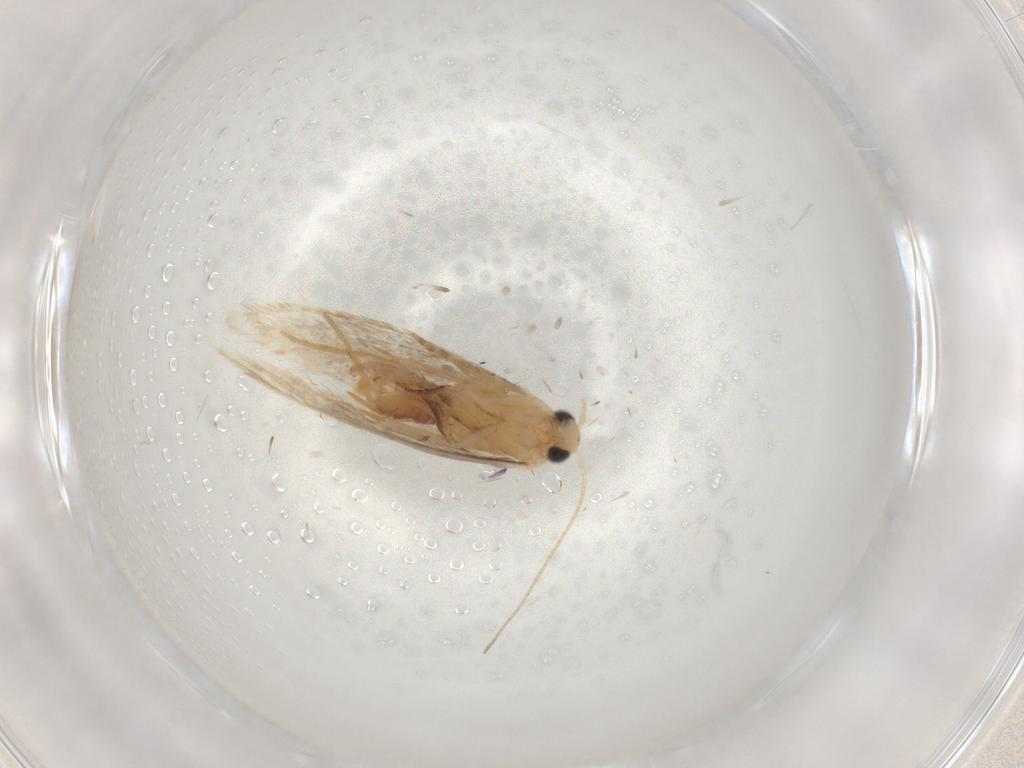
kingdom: Animalia
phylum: Arthropoda
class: Insecta
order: Lepidoptera
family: Dryadaulidae
